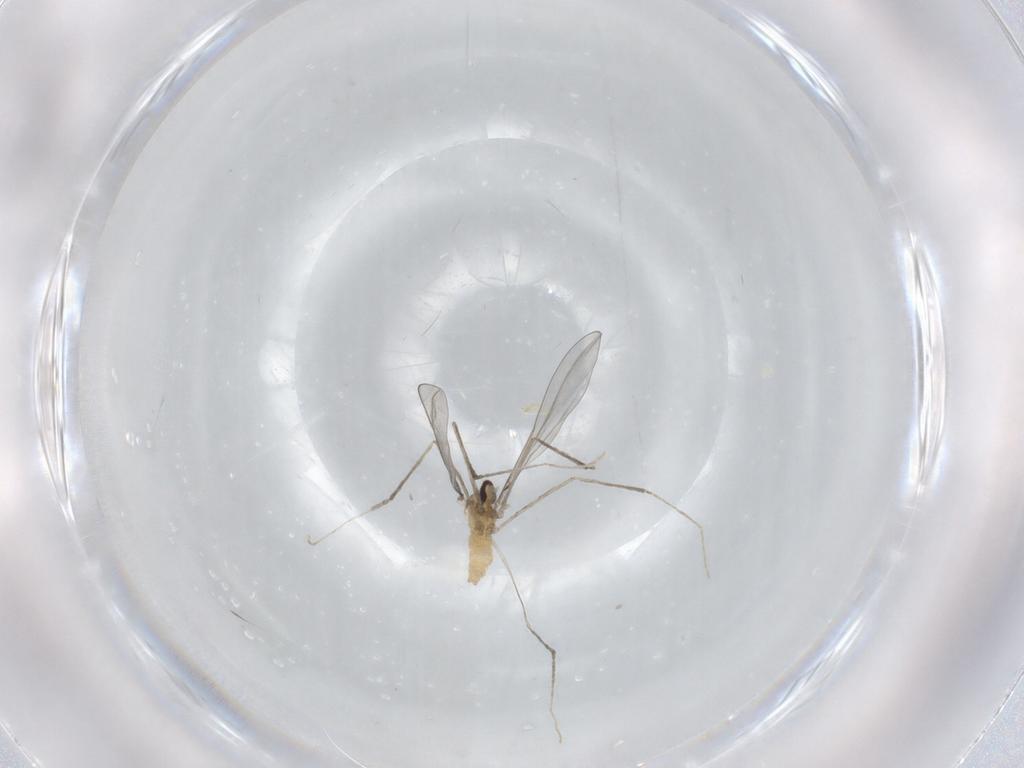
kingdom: Animalia
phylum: Arthropoda
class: Insecta
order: Diptera
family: Cecidomyiidae
